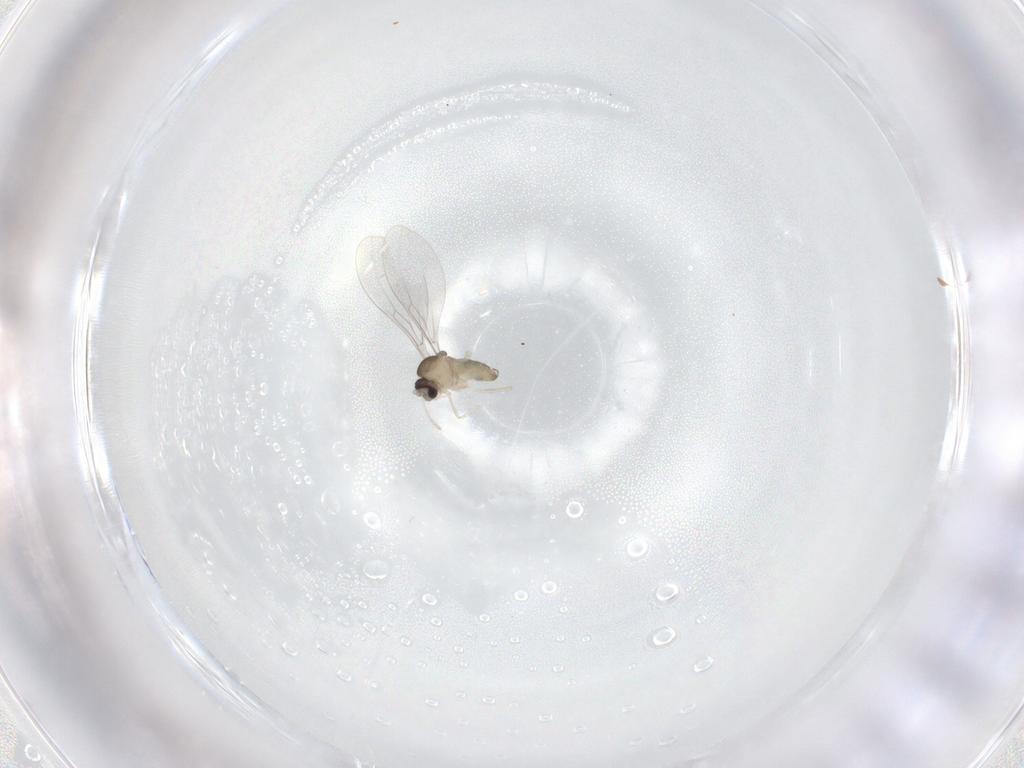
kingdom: Animalia
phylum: Arthropoda
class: Insecta
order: Diptera
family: Cecidomyiidae
